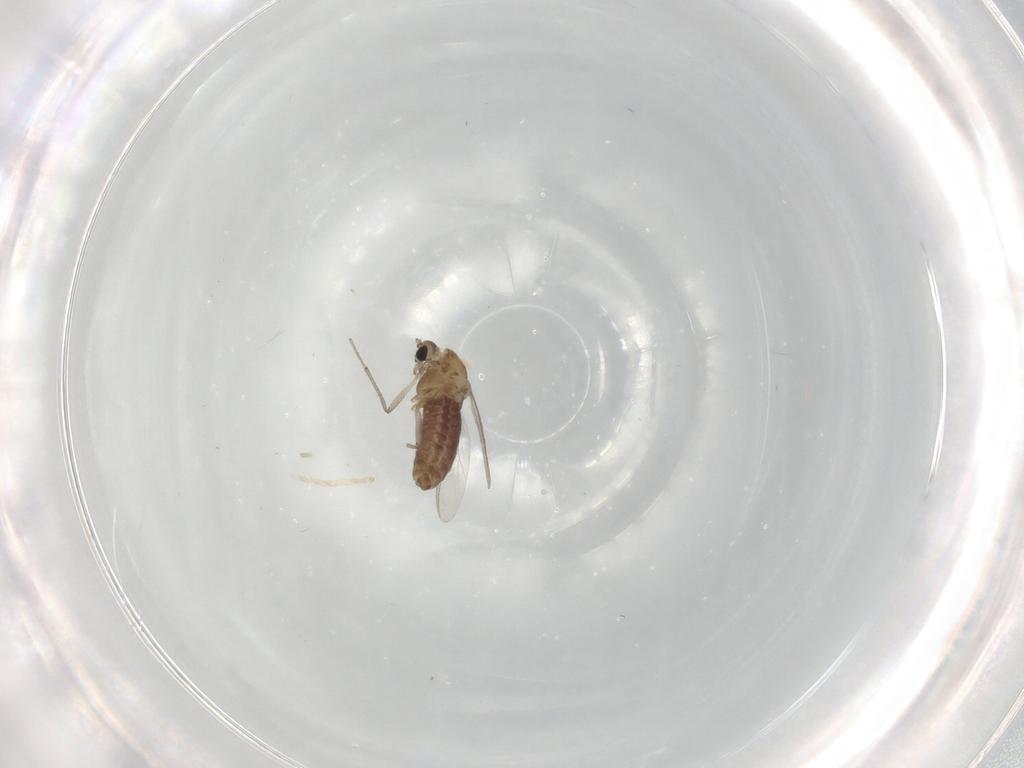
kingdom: Animalia
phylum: Arthropoda
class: Insecta
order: Diptera
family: Chironomidae
